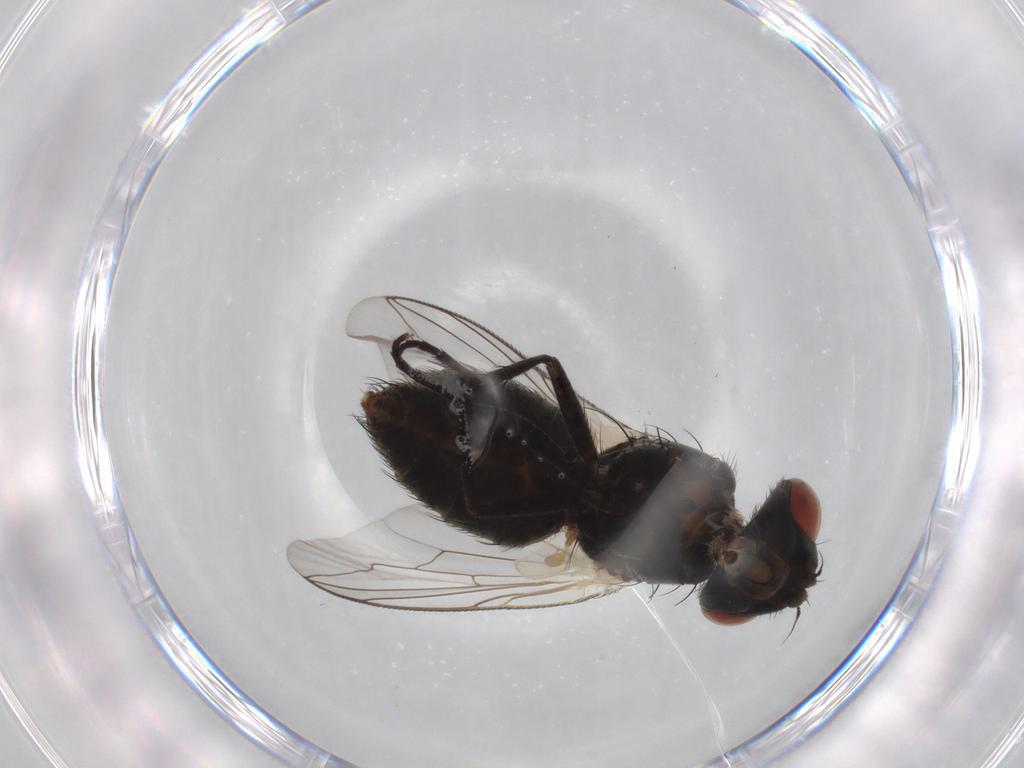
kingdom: Animalia
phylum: Arthropoda
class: Insecta
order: Diptera
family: Sarcophagidae
